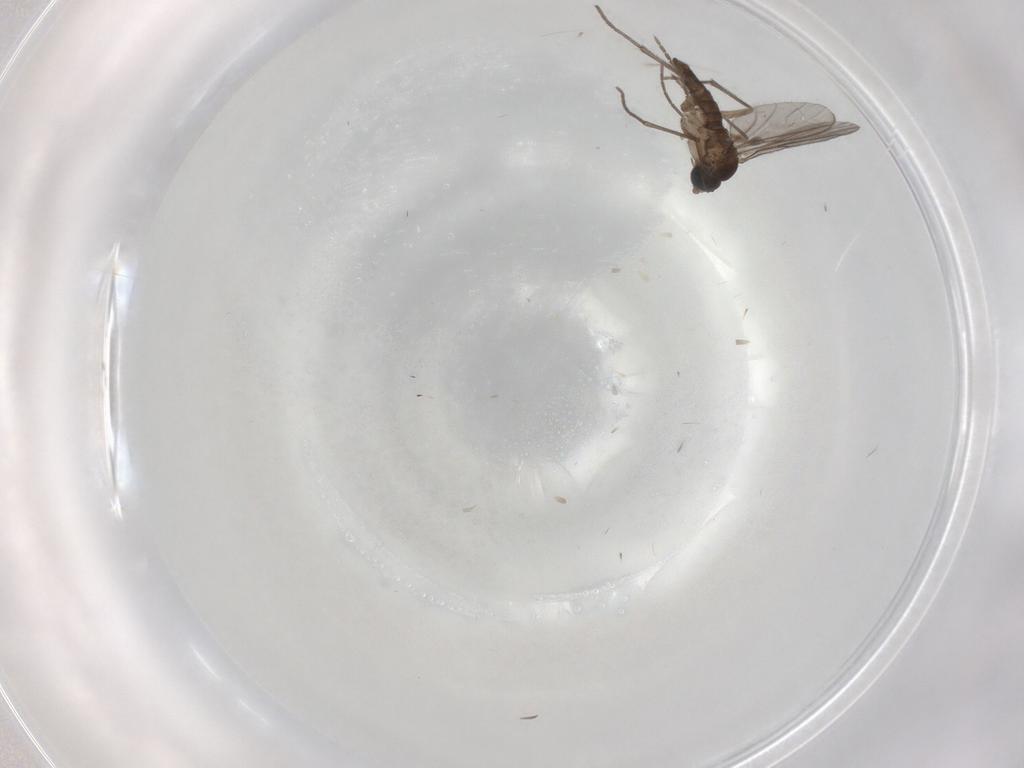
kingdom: Animalia
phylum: Arthropoda
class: Insecta
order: Diptera
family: Sciaridae
